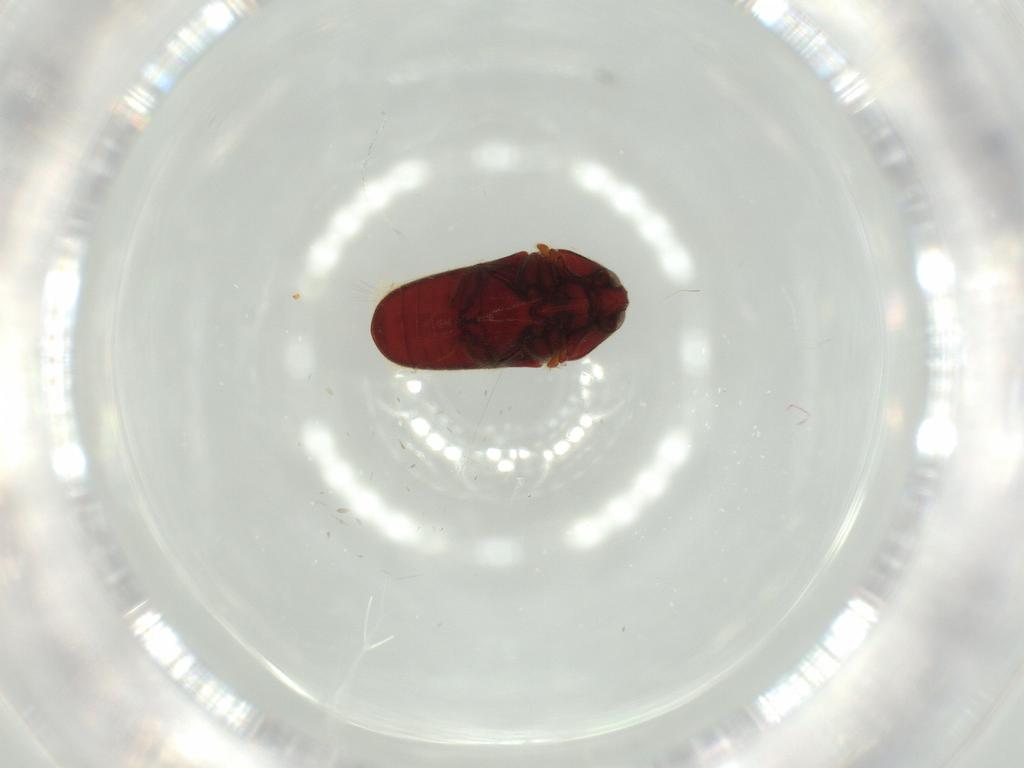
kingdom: Animalia
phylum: Arthropoda
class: Insecta
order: Coleoptera
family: Throscidae
